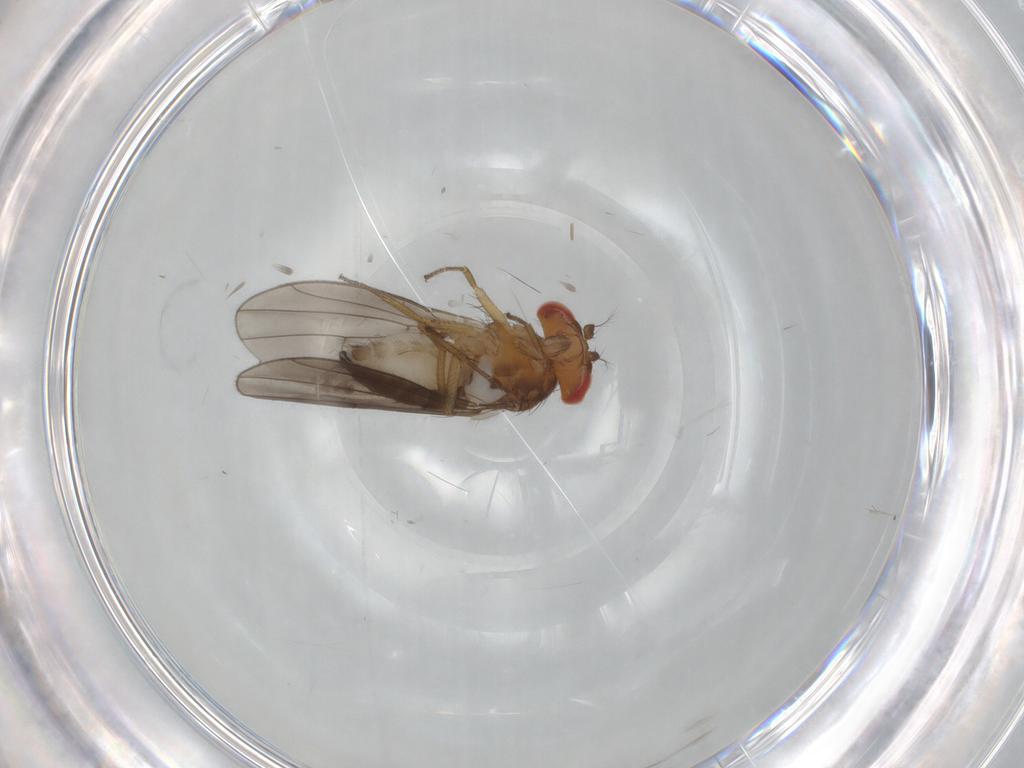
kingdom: Animalia
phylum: Arthropoda
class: Insecta
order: Diptera
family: Drosophilidae
